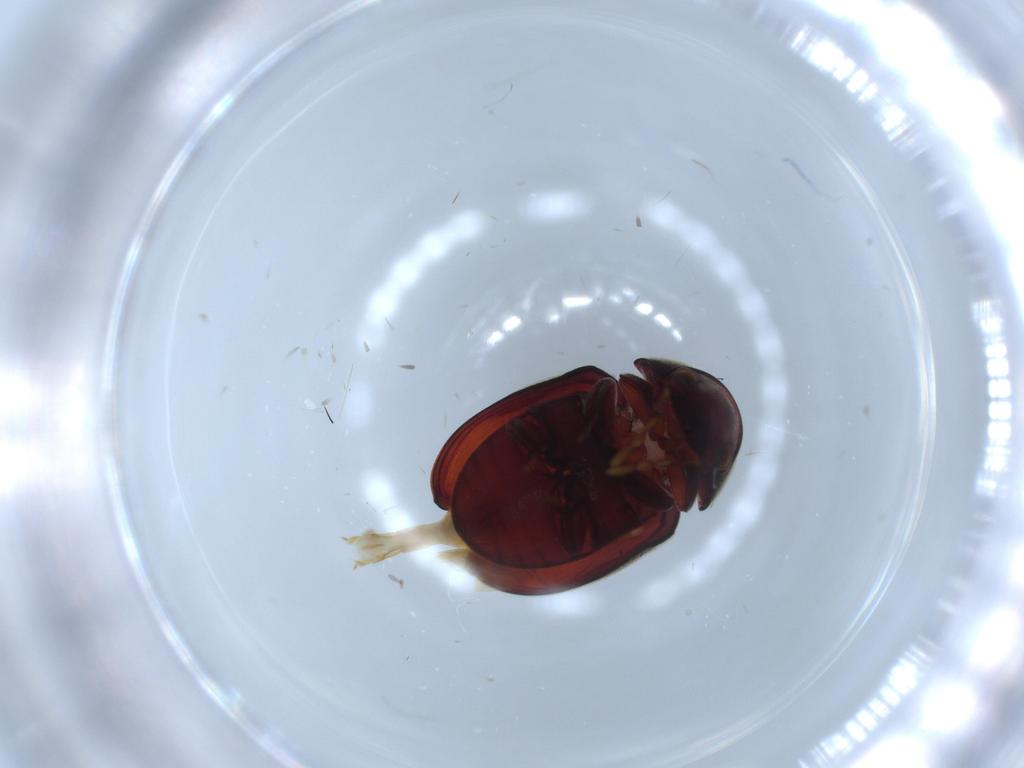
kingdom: Animalia
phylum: Arthropoda
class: Insecta
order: Coleoptera
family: Ptinidae
